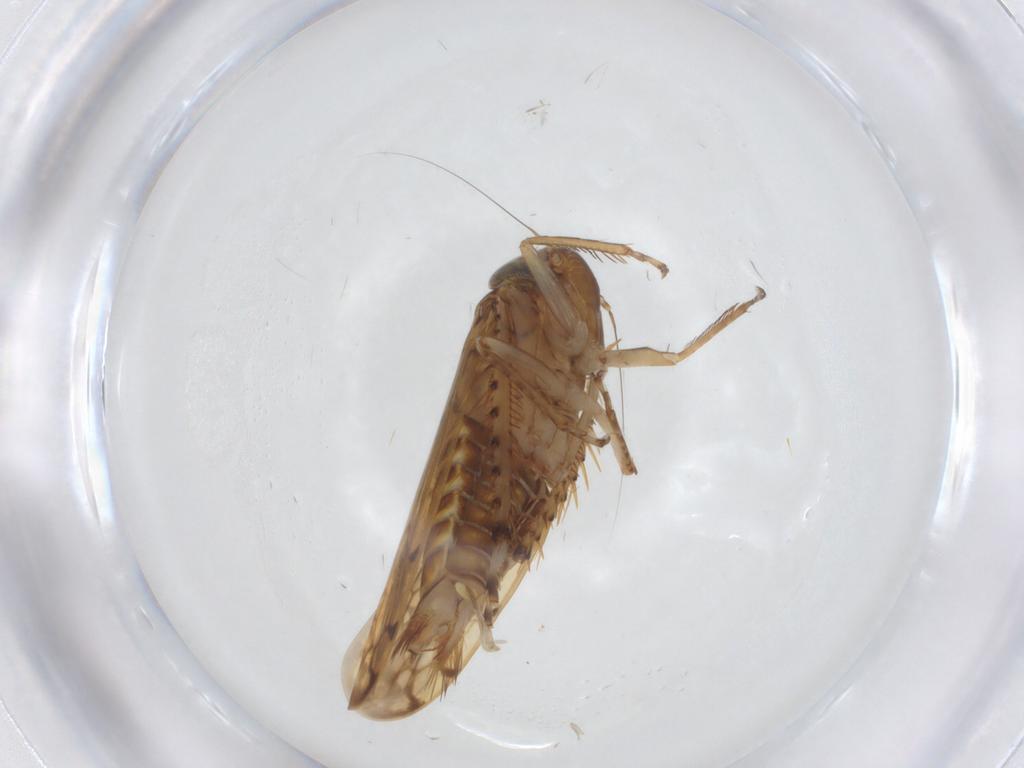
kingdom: Animalia
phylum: Arthropoda
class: Insecta
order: Hemiptera
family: Cicadellidae
